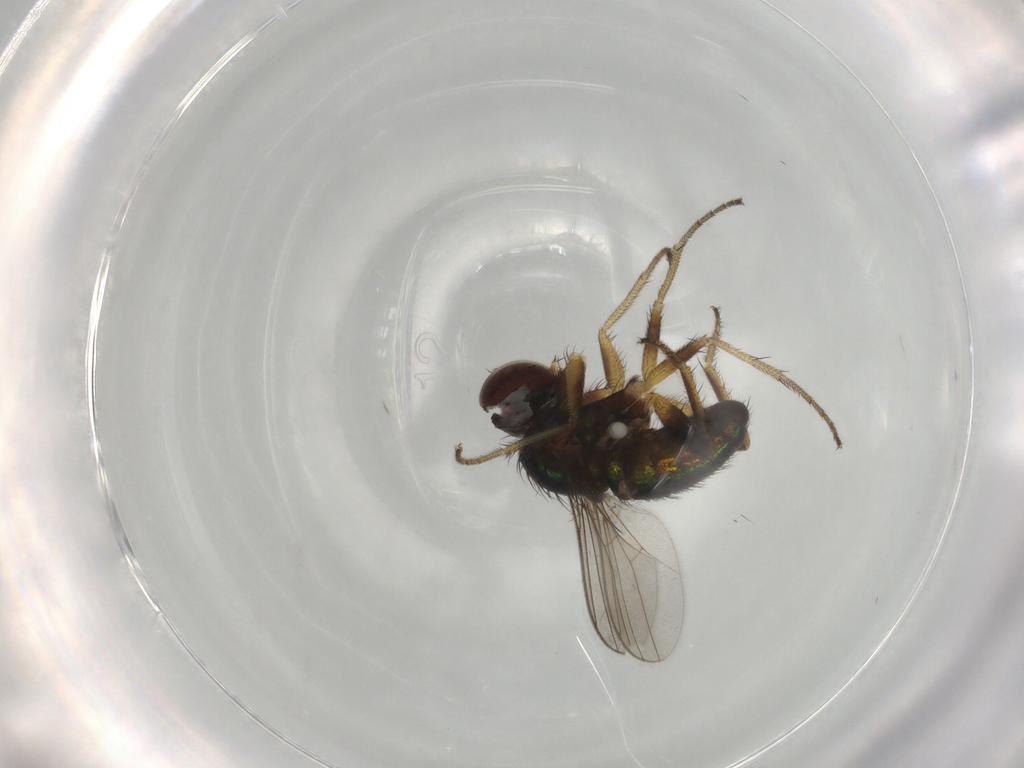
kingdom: Animalia
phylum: Arthropoda
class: Insecta
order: Diptera
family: Dolichopodidae
